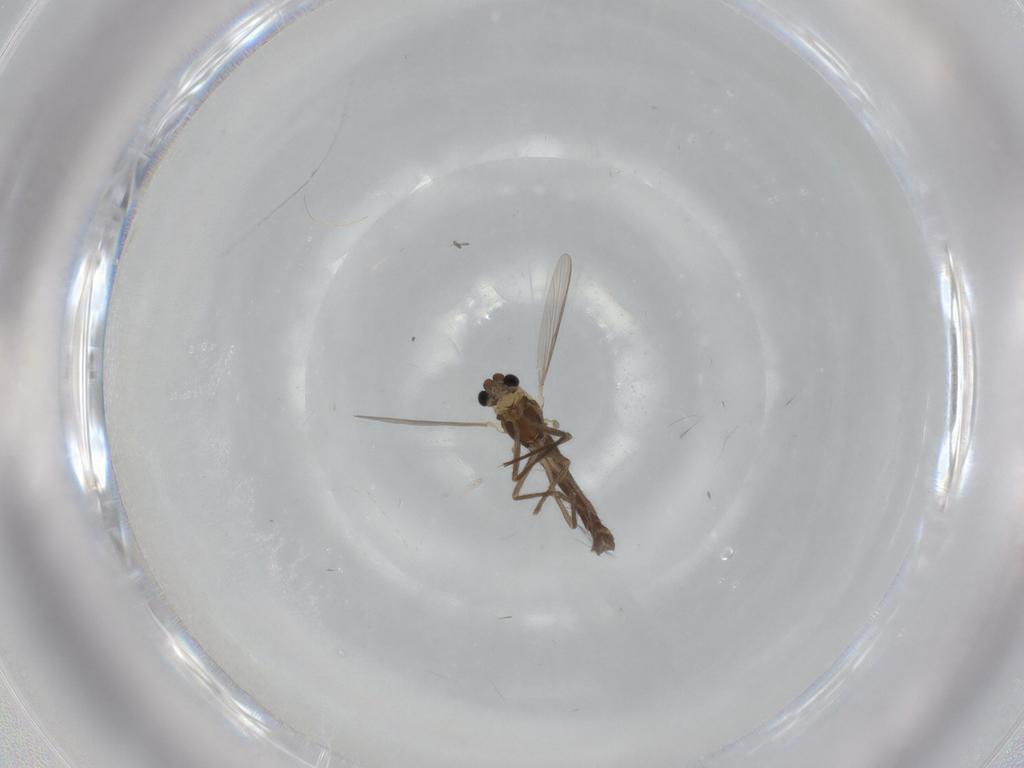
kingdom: Animalia
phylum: Arthropoda
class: Insecta
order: Diptera
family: Chironomidae
